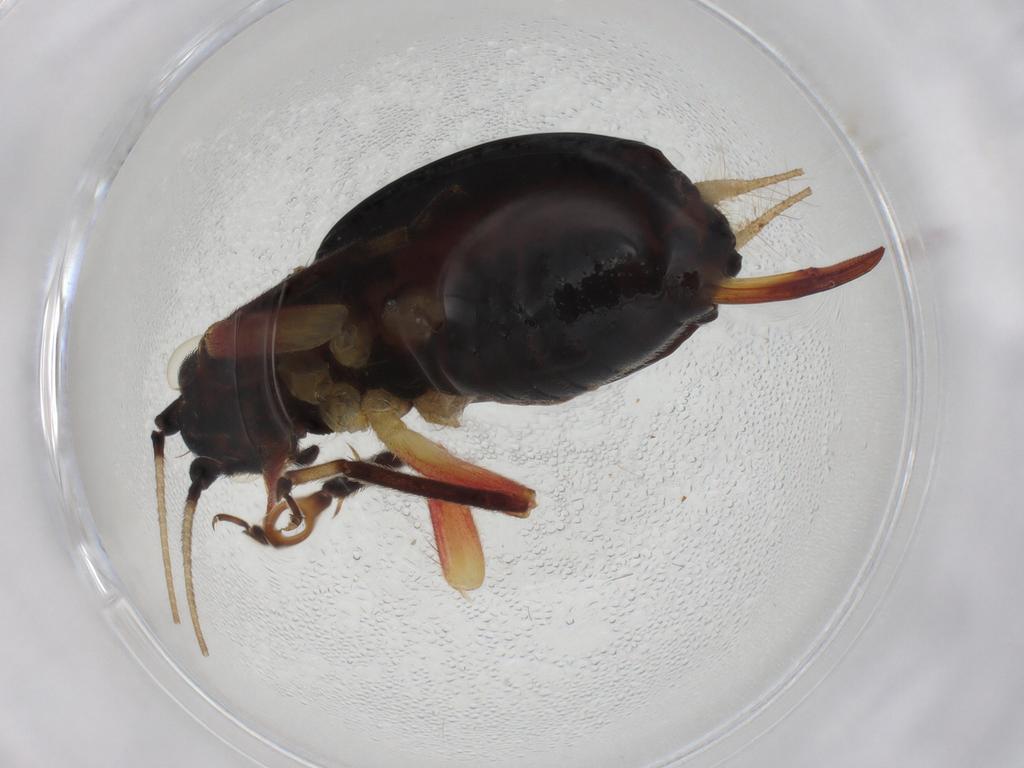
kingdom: Animalia
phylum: Arthropoda
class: Insecta
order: Orthoptera
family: Trigonidiidae
